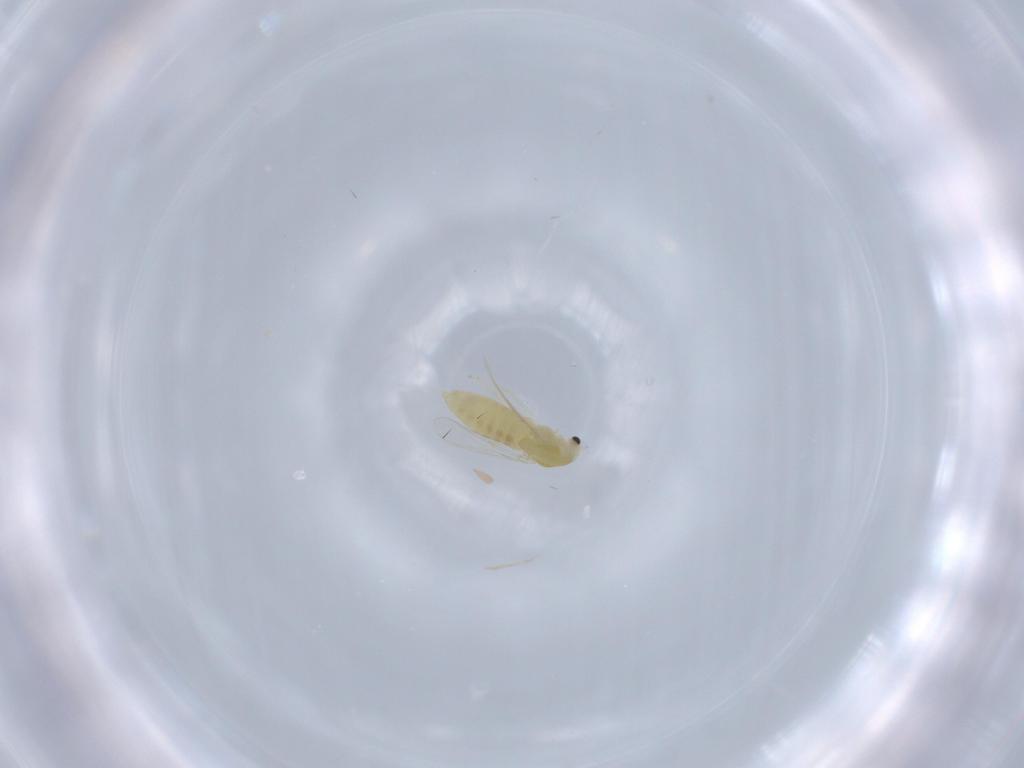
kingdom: Animalia
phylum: Arthropoda
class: Insecta
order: Diptera
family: Chironomidae
